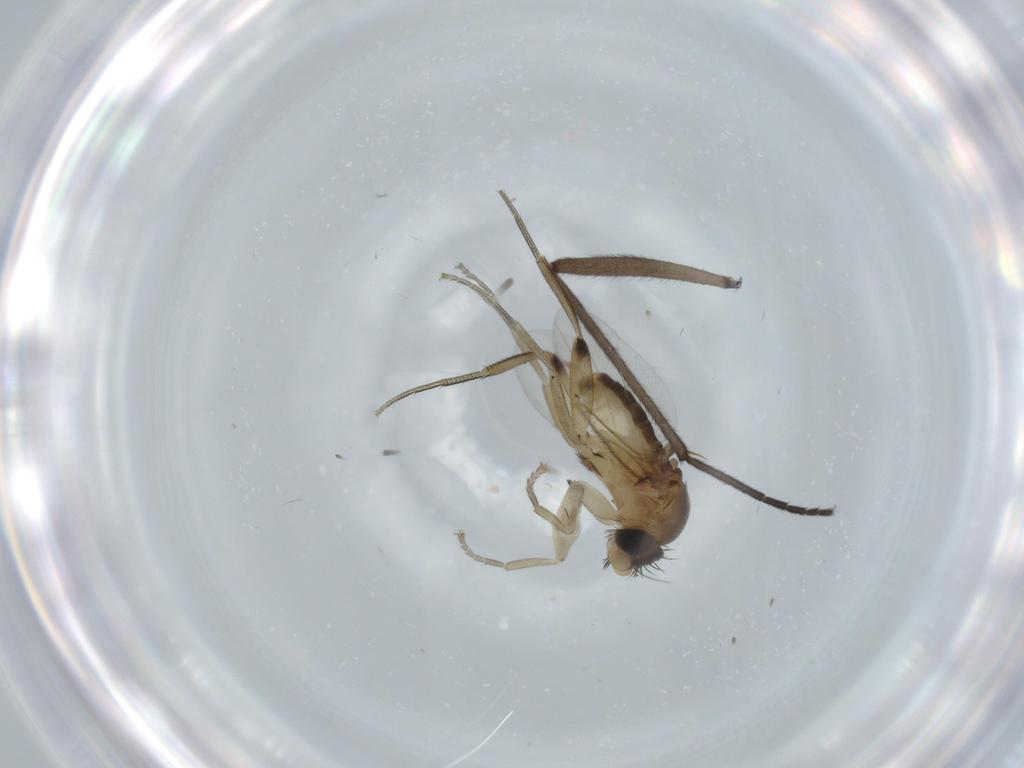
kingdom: Animalia
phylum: Arthropoda
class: Insecta
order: Diptera
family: Phoridae
